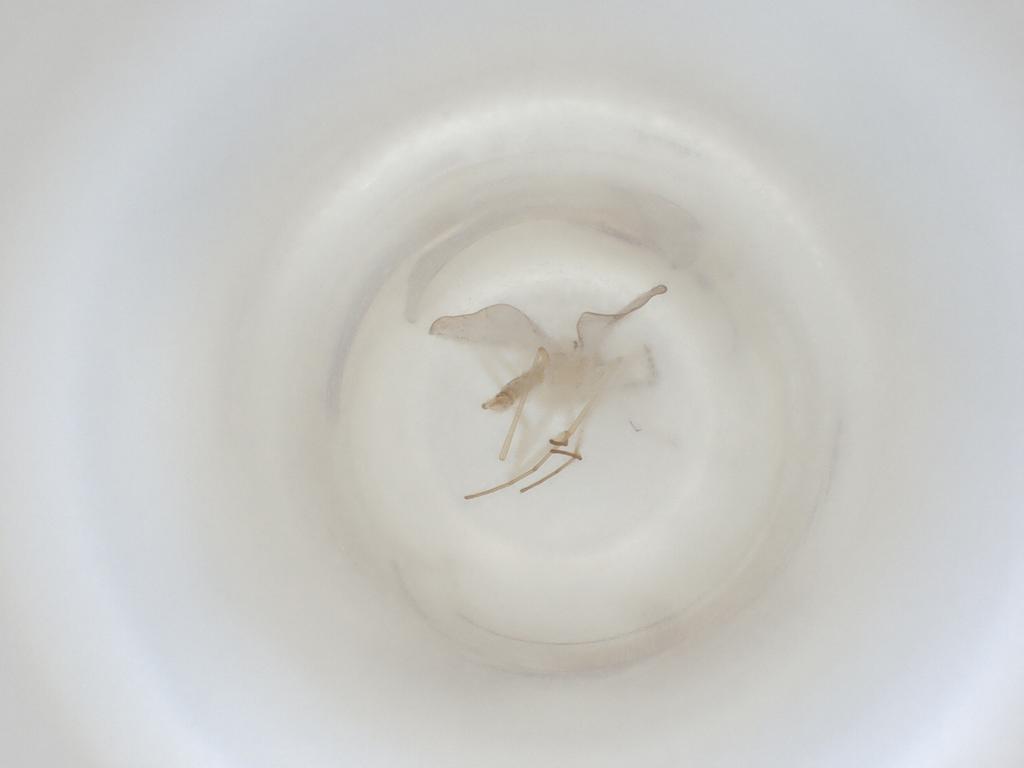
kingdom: Animalia
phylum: Arthropoda
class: Insecta
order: Diptera
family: Cecidomyiidae
